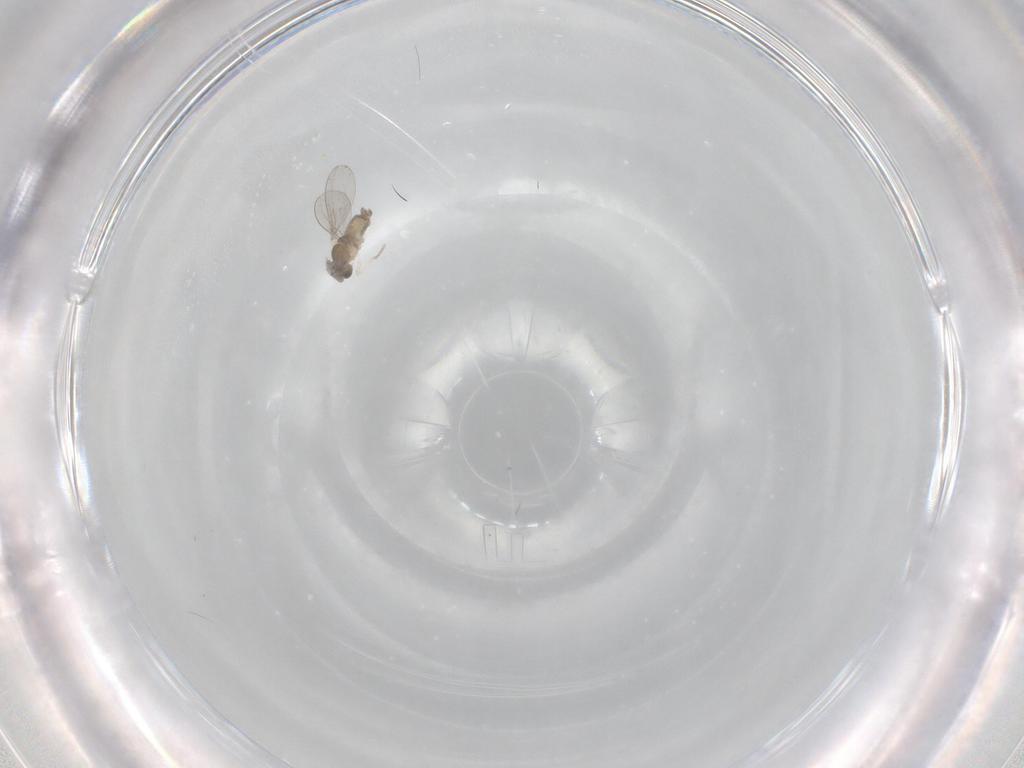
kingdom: Animalia
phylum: Arthropoda
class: Insecta
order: Diptera
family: Cecidomyiidae
